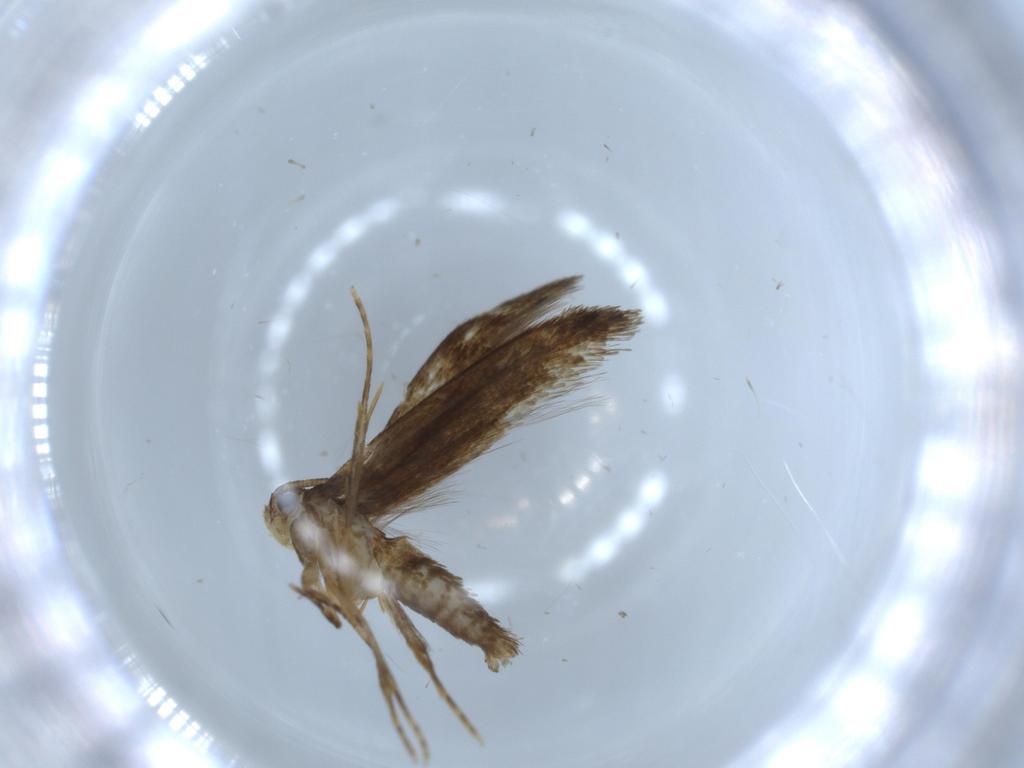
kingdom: Animalia
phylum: Arthropoda
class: Insecta
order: Lepidoptera
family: Tineidae
